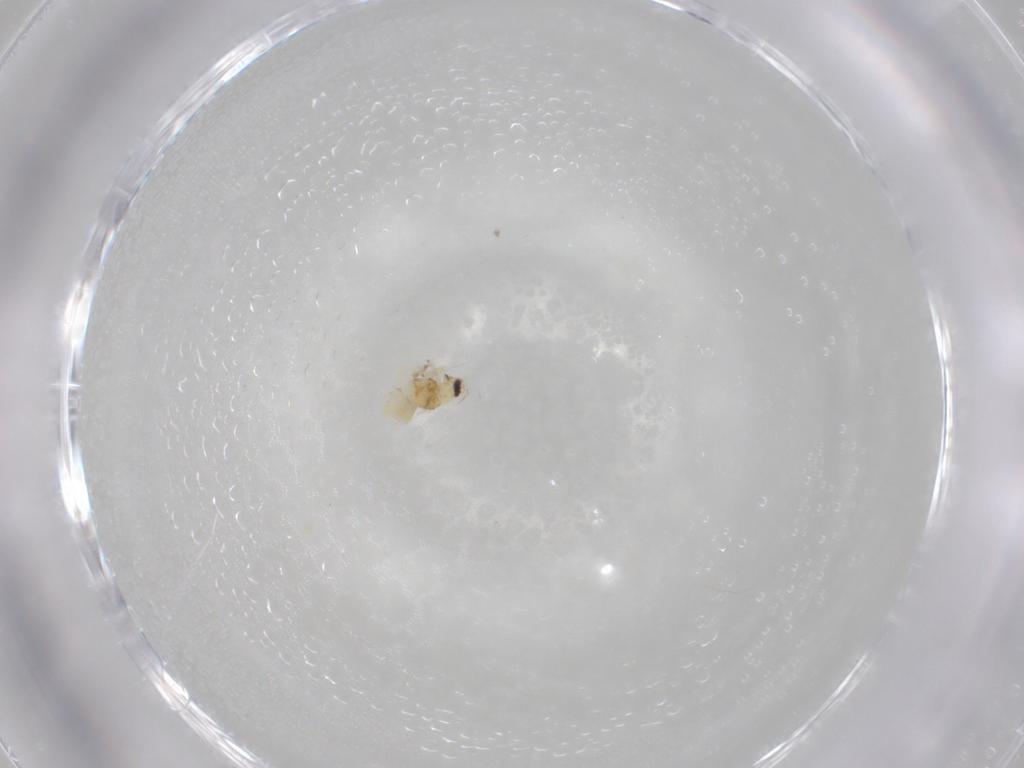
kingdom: Animalia
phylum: Arthropoda
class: Insecta
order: Hymenoptera
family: Formicidae
